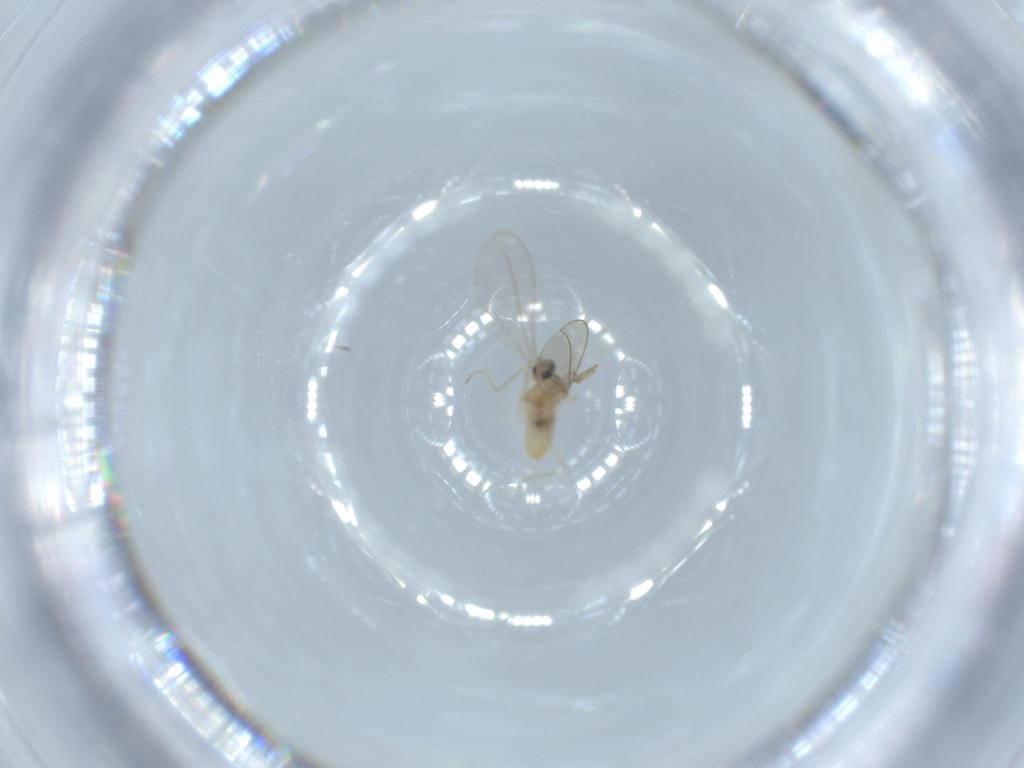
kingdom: Animalia
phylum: Arthropoda
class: Insecta
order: Diptera
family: Cecidomyiidae
